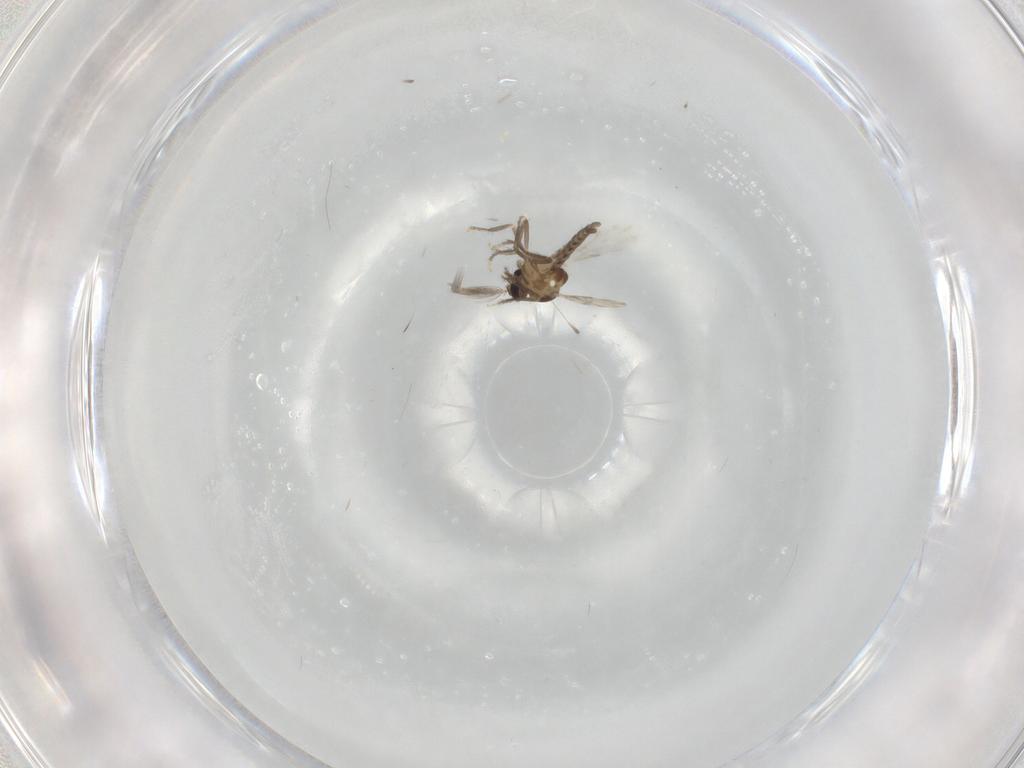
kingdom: Animalia
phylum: Arthropoda
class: Insecta
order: Diptera
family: Ceratopogonidae
